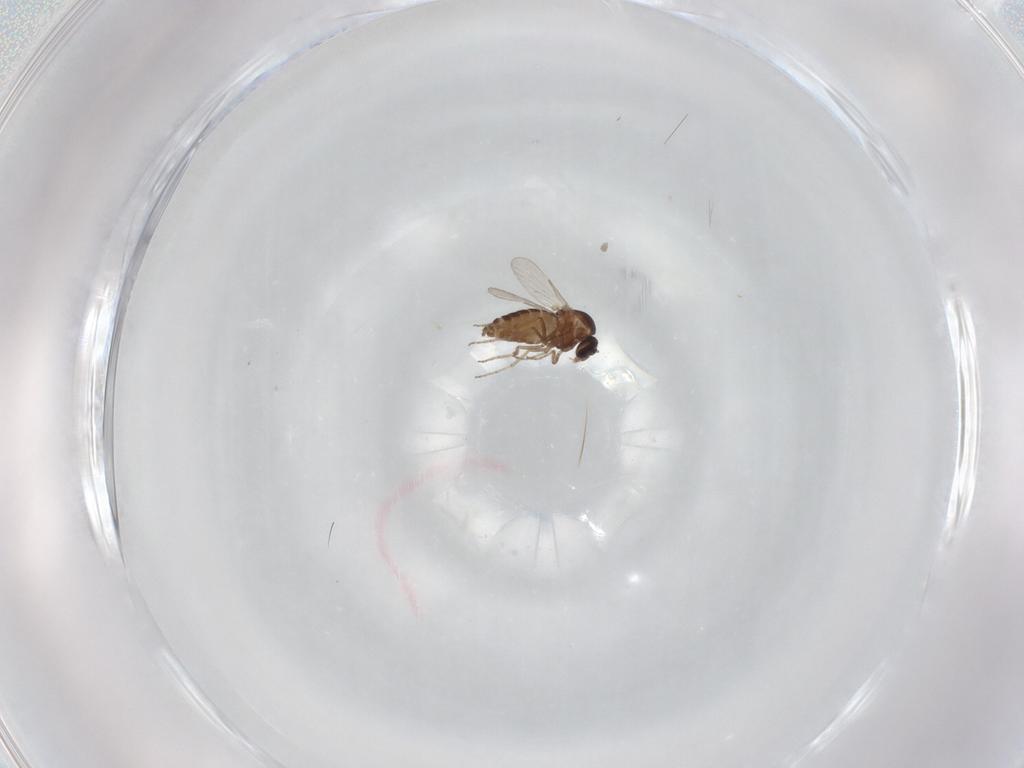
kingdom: Animalia
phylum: Arthropoda
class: Insecta
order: Diptera
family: Ceratopogonidae
